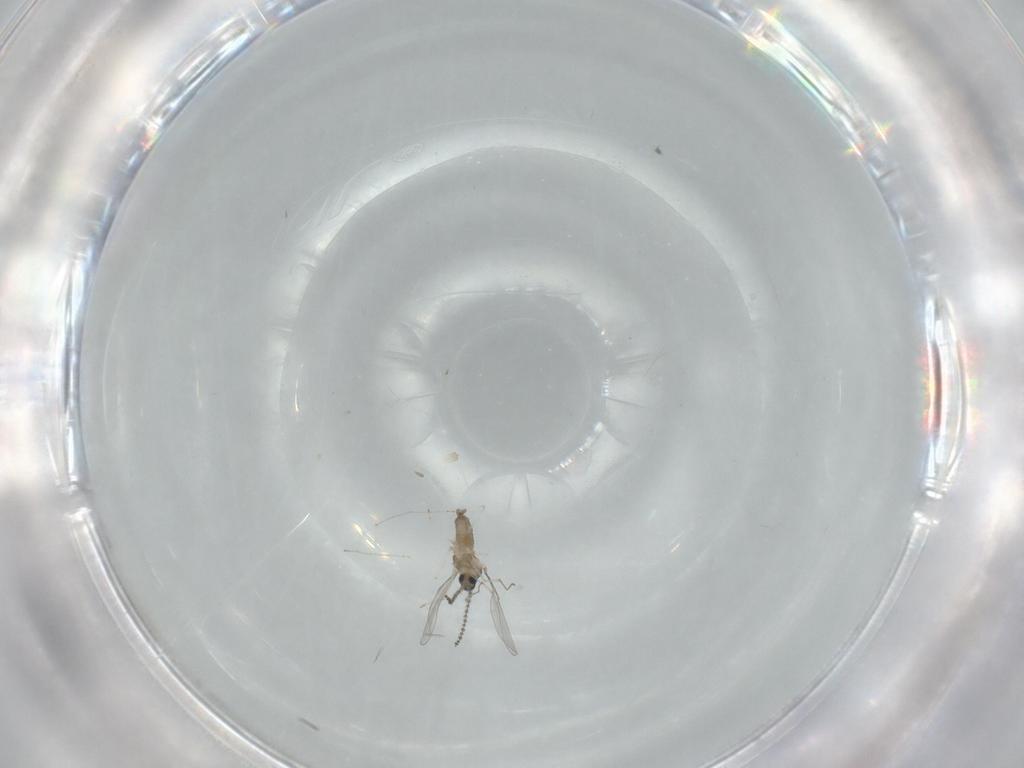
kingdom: Animalia
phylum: Arthropoda
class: Insecta
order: Diptera
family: Cecidomyiidae
